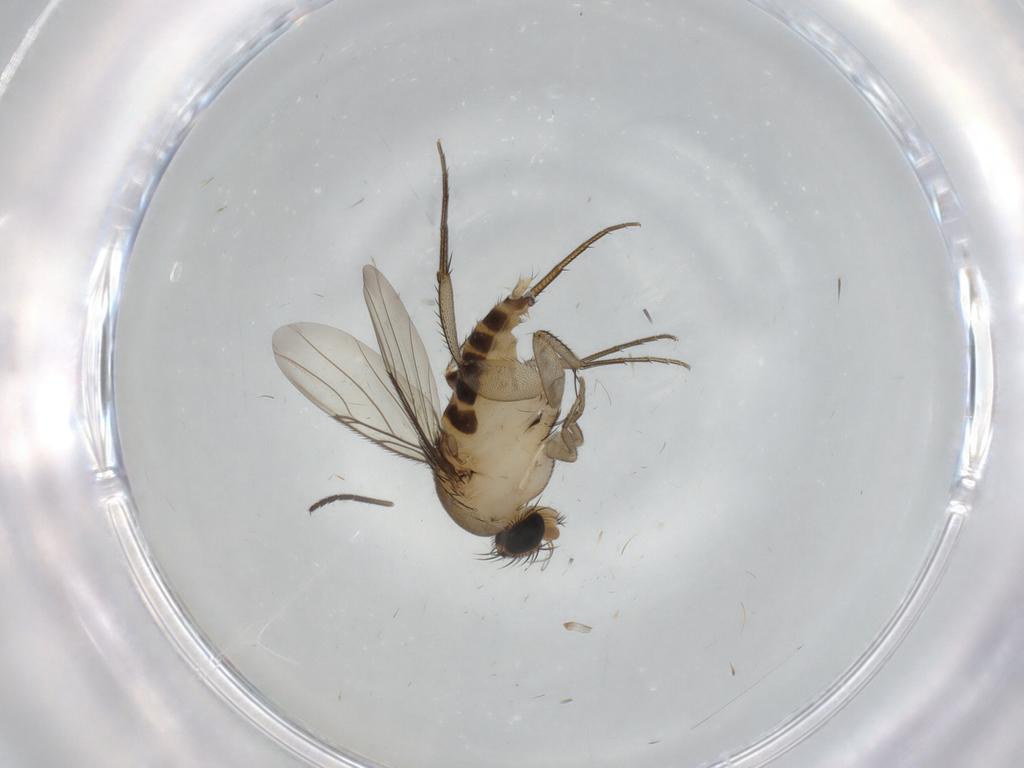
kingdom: Animalia
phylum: Arthropoda
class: Insecta
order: Diptera
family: Phoridae
